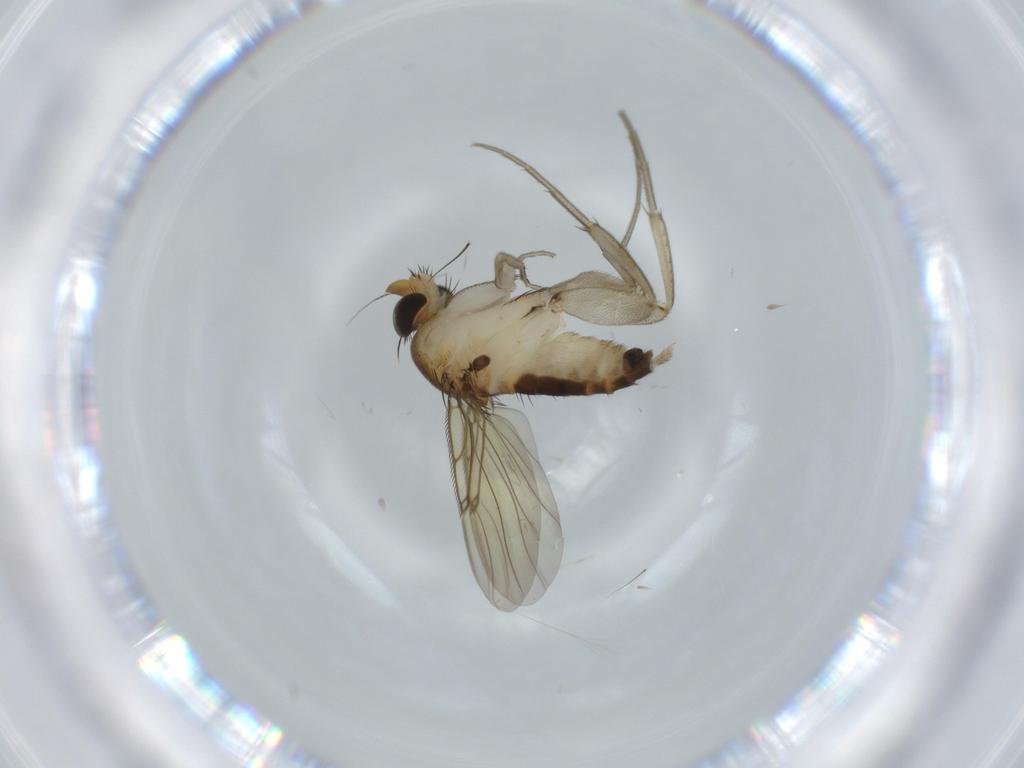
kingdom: Animalia
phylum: Arthropoda
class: Insecta
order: Diptera
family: Phoridae
